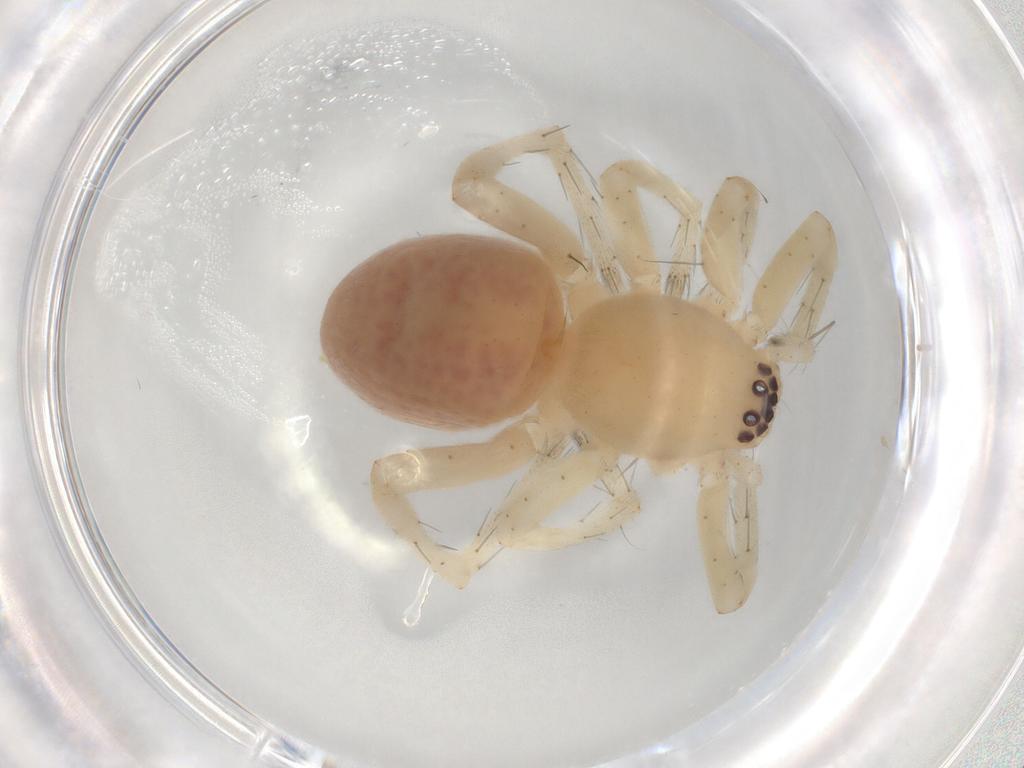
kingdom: Animalia
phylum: Arthropoda
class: Arachnida
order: Araneae
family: Clubionidae
